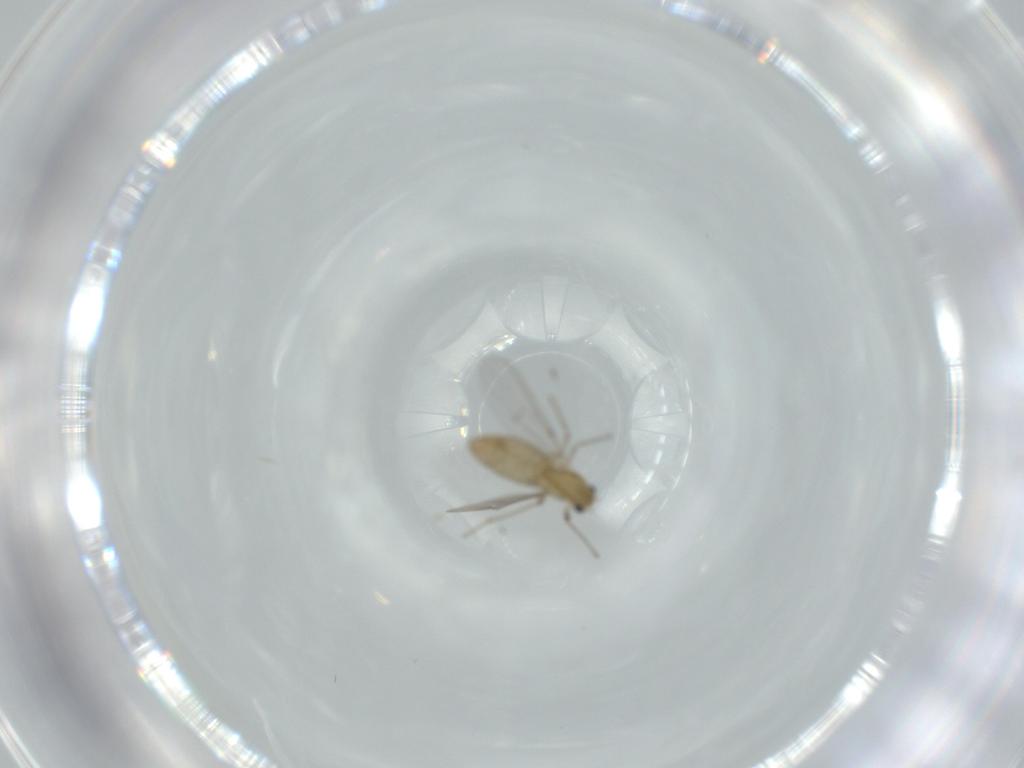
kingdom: Animalia
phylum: Arthropoda
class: Insecta
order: Diptera
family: Chironomidae
